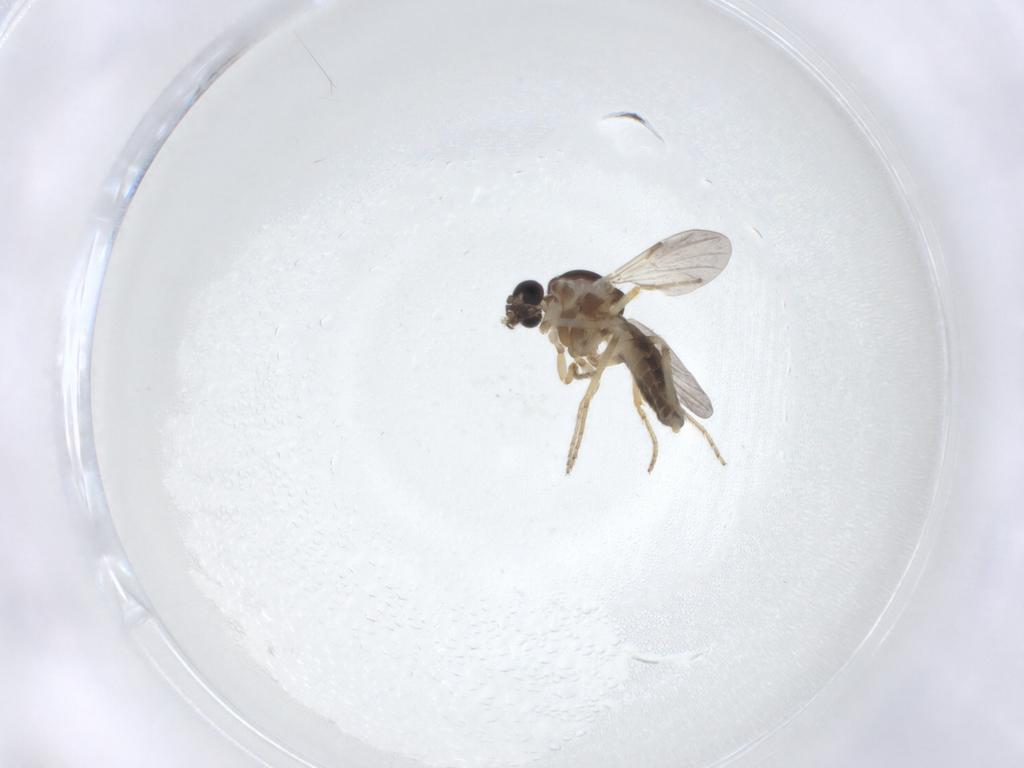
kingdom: Animalia
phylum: Arthropoda
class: Insecta
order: Diptera
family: Ceratopogonidae
